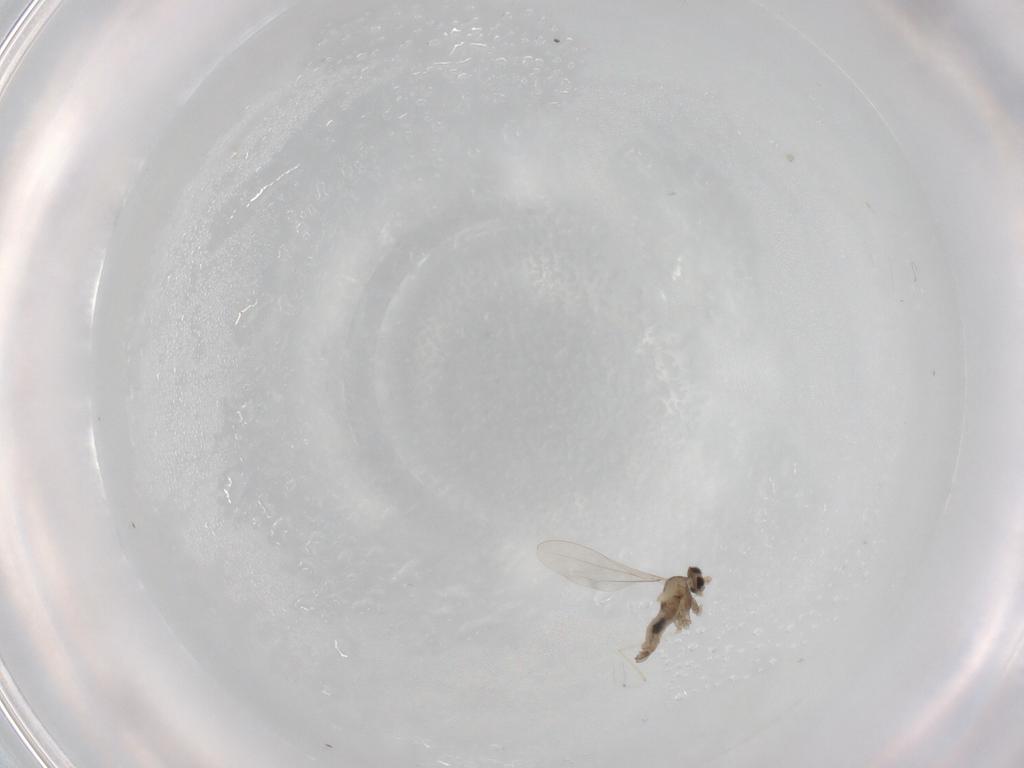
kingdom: Animalia
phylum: Arthropoda
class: Insecta
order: Diptera
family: Cecidomyiidae
